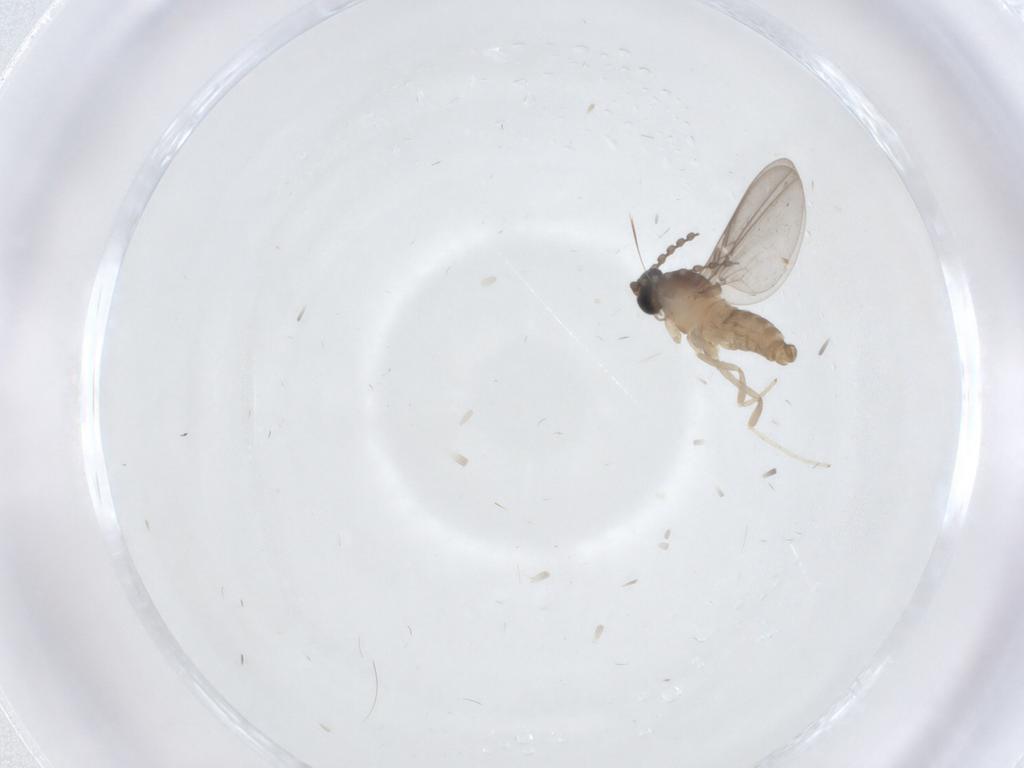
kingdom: Animalia
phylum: Arthropoda
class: Insecta
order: Diptera
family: Cecidomyiidae
